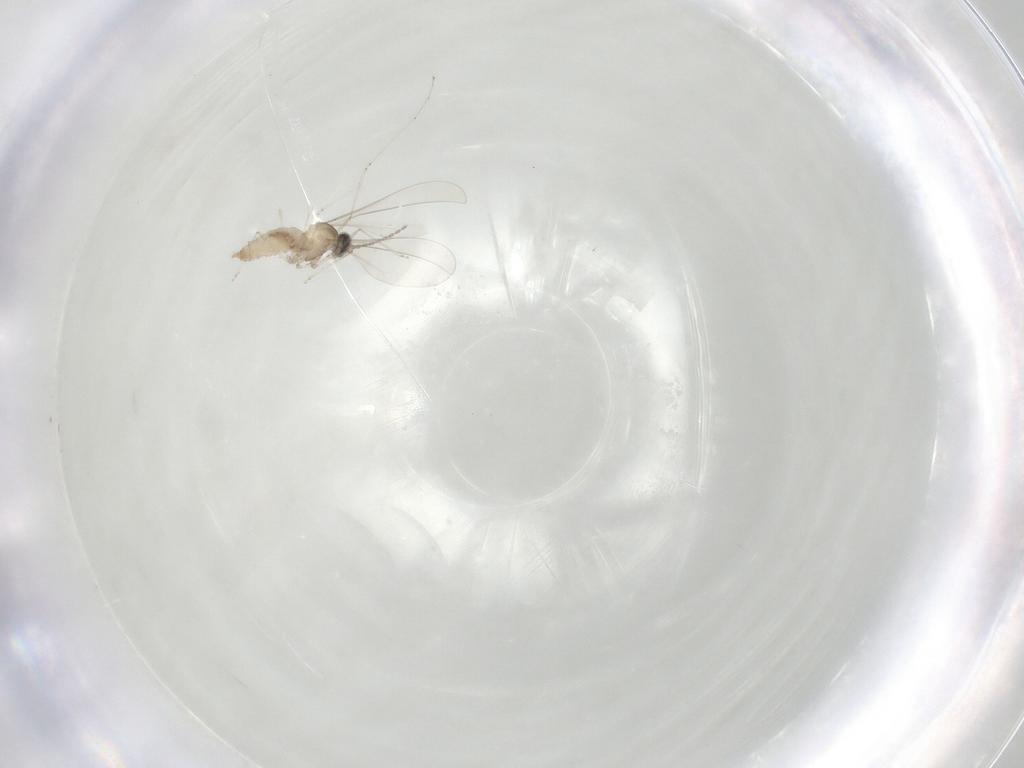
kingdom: Animalia
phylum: Arthropoda
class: Insecta
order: Diptera
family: Cecidomyiidae
